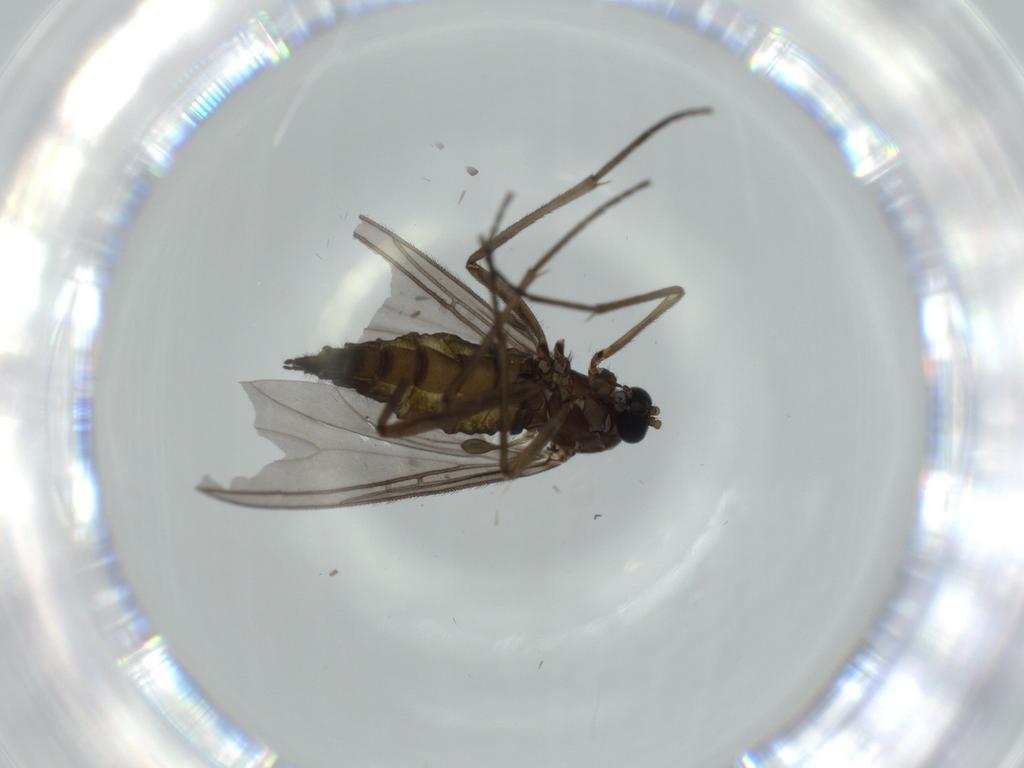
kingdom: Animalia
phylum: Arthropoda
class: Insecta
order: Diptera
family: Sciaridae
